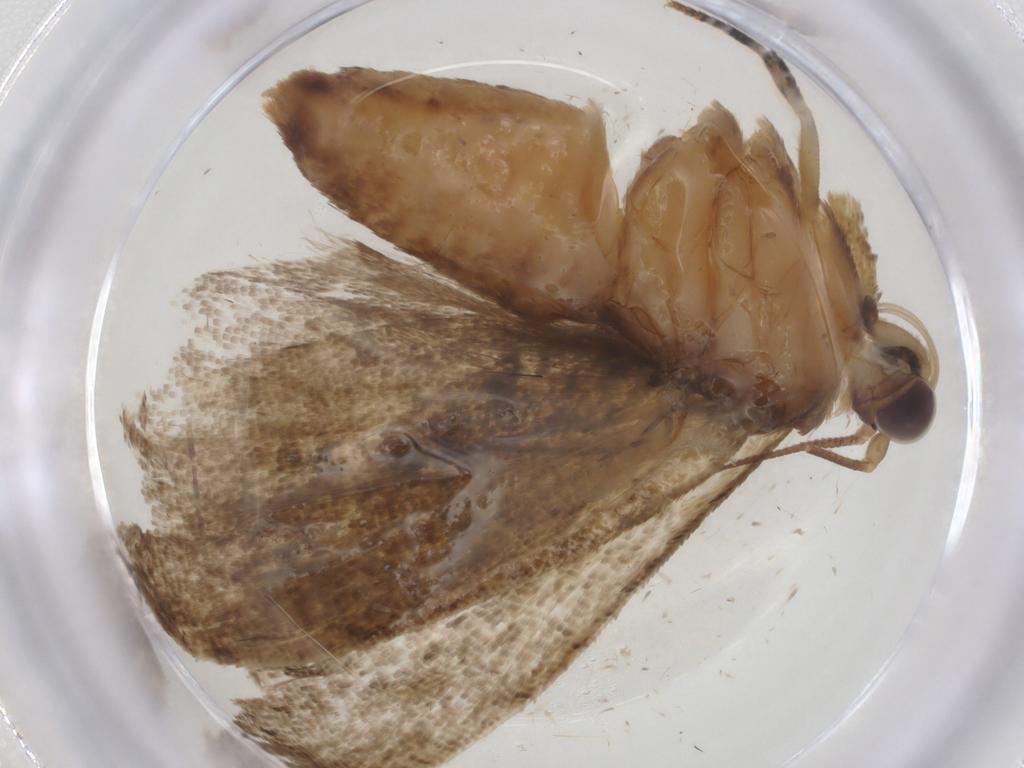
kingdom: Animalia
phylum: Arthropoda
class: Insecta
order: Lepidoptera
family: Tortricidae
